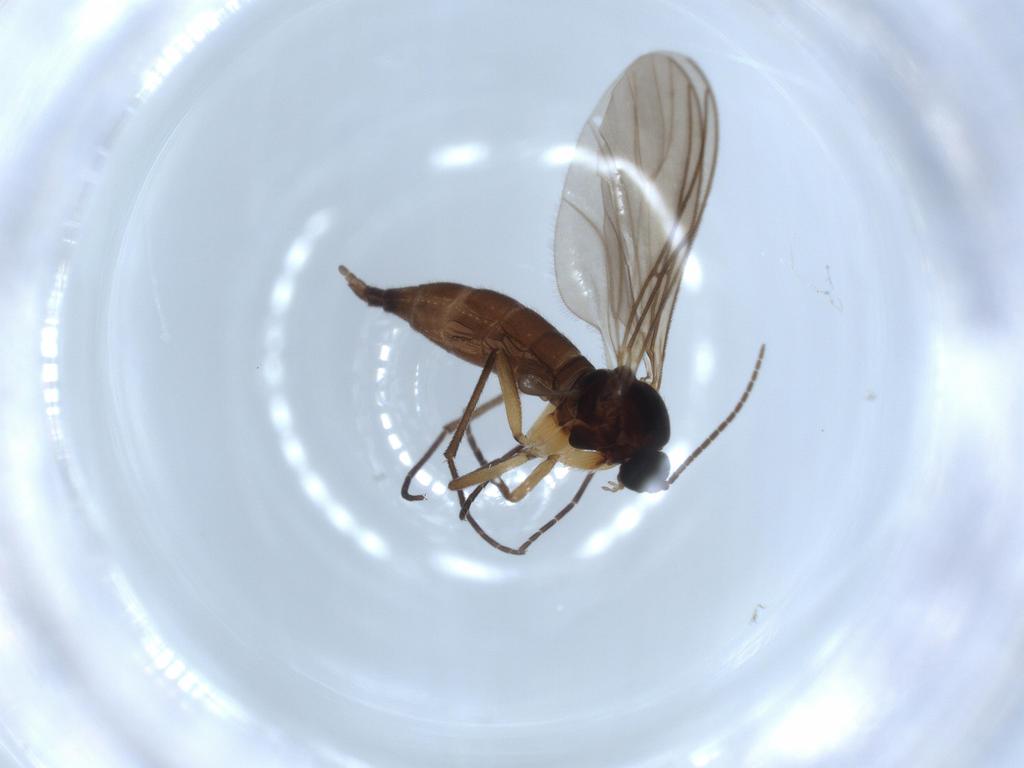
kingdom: Animalia
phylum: Arthropoda
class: Insecta
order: Diptera
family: Sciaridae
